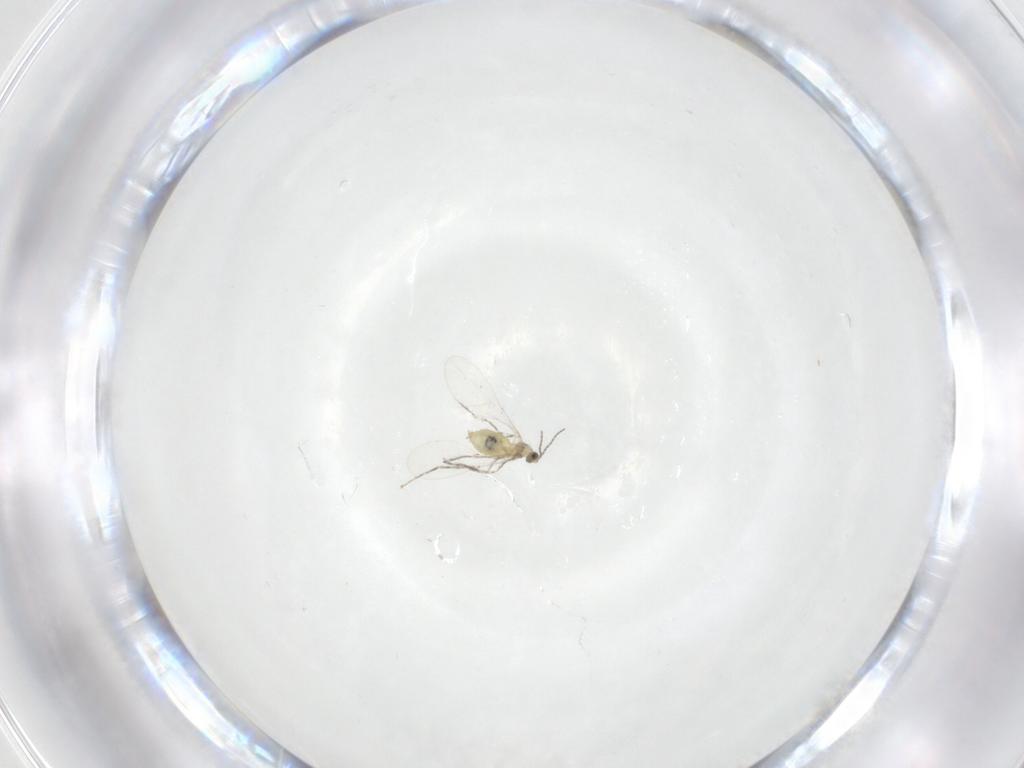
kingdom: Animalia
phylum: Arthropoda
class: Insecta
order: Diptera
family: Cecidomyiidae
